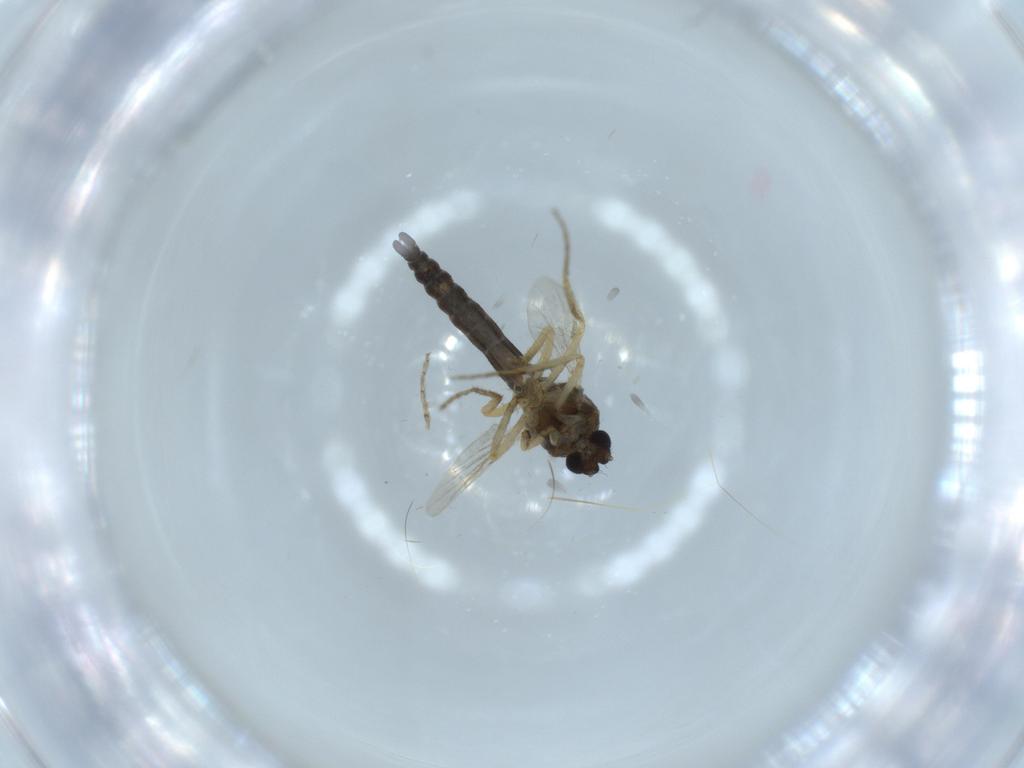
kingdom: Animalia
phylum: Arthropoda
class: Insecta
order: Diptera
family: Ceratopogonidae
